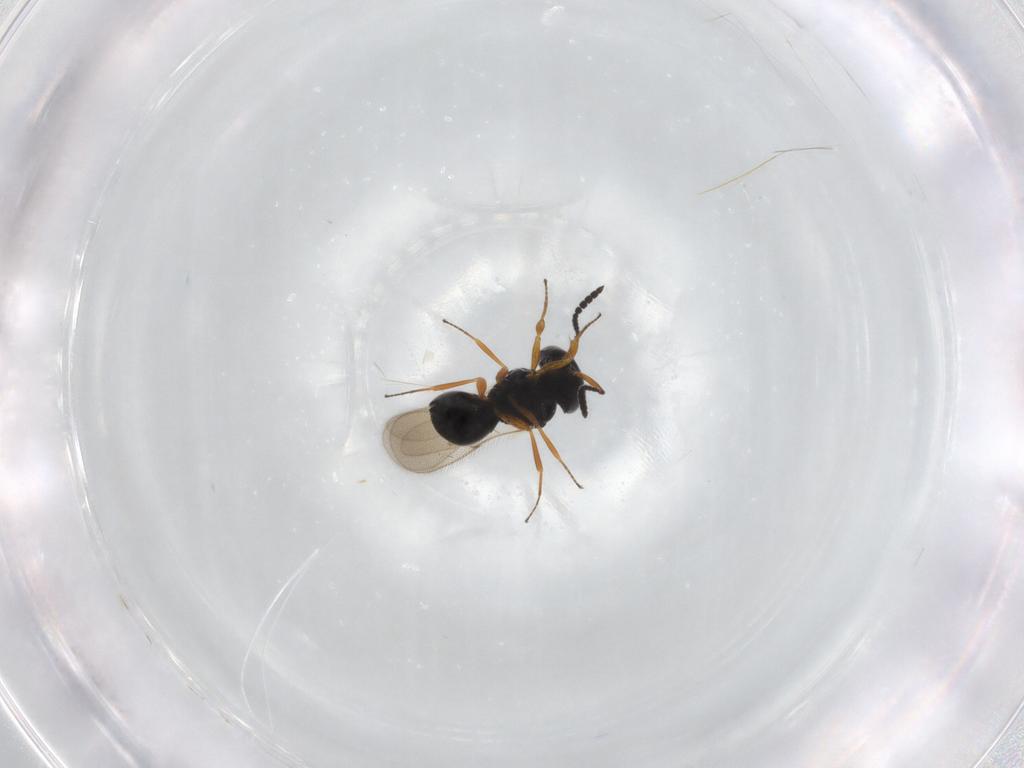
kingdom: Animalia
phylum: Arthropoda
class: Insecta
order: Hymenoptera
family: Scelionidae
